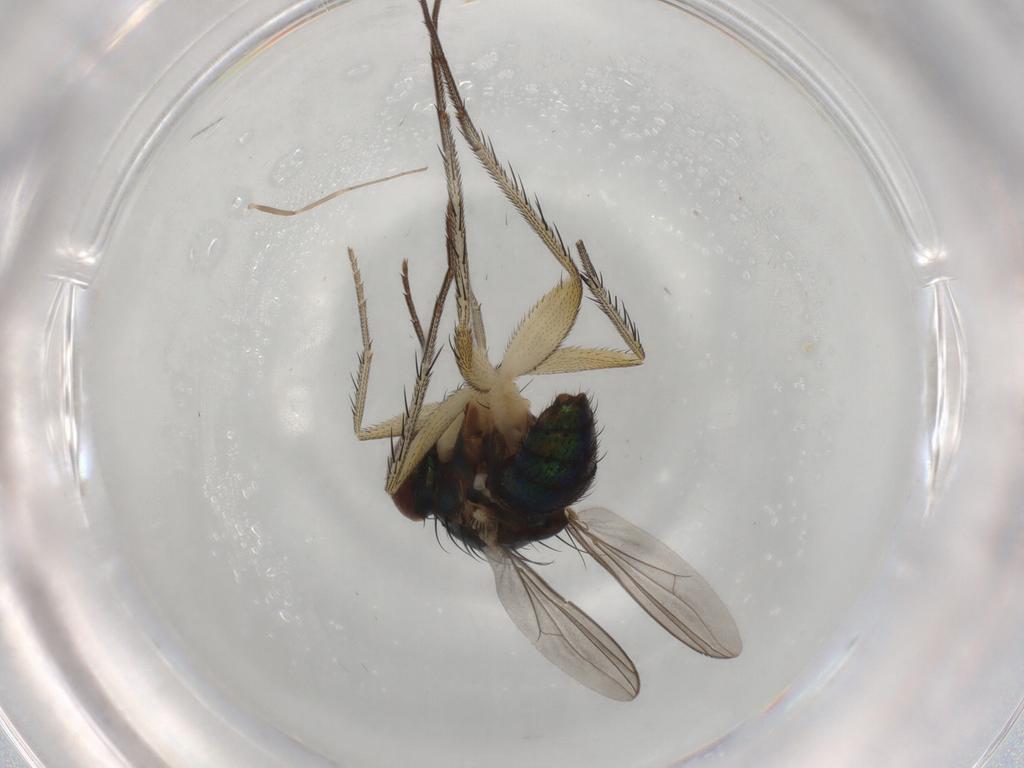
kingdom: Animalia
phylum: Arthropoda
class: Insecta
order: Diptera
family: Dolichopodidae
